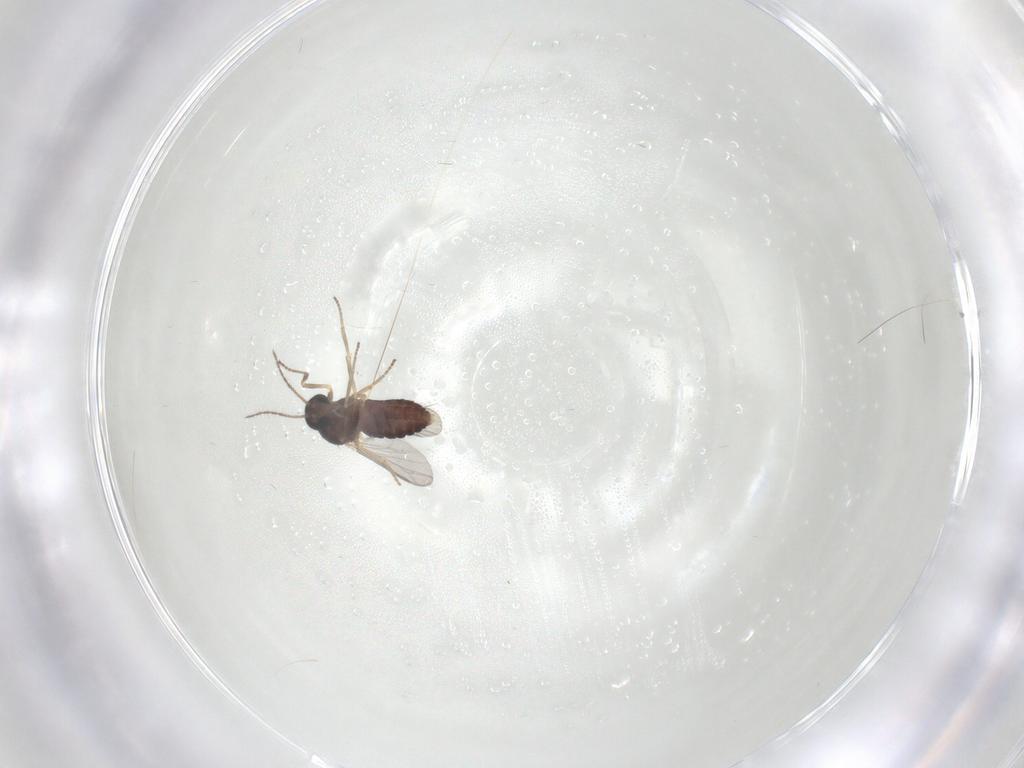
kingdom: Animalia
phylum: Arthropoda
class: Insecta
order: Diptera
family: Ceratopogonidae
